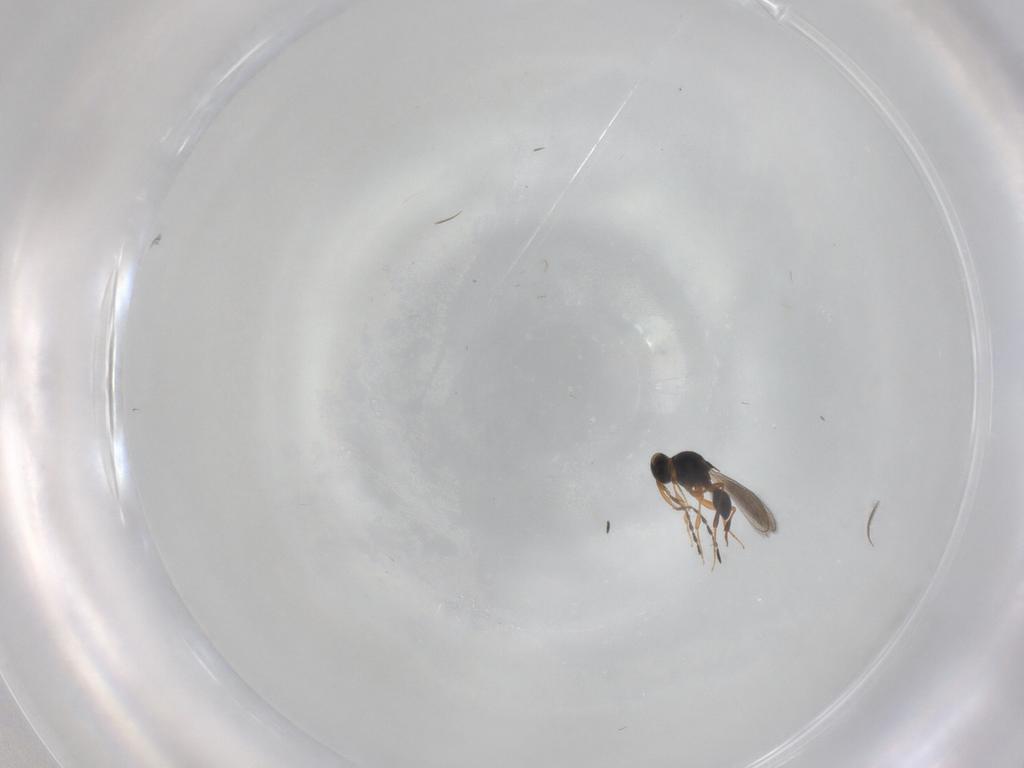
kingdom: Animalia
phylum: Arthropoda
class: Insecta
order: Hymenoptera
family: Platygastridae
